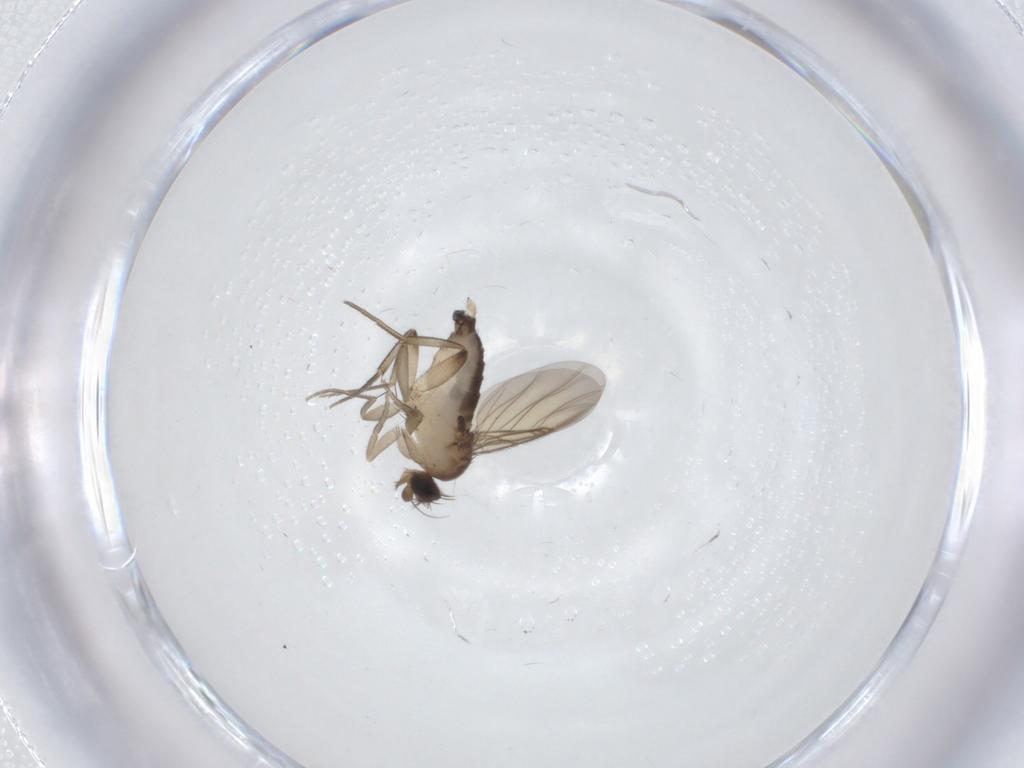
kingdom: Animalia
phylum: Arthropoda
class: Insecta
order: Diptera
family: Phoridae
